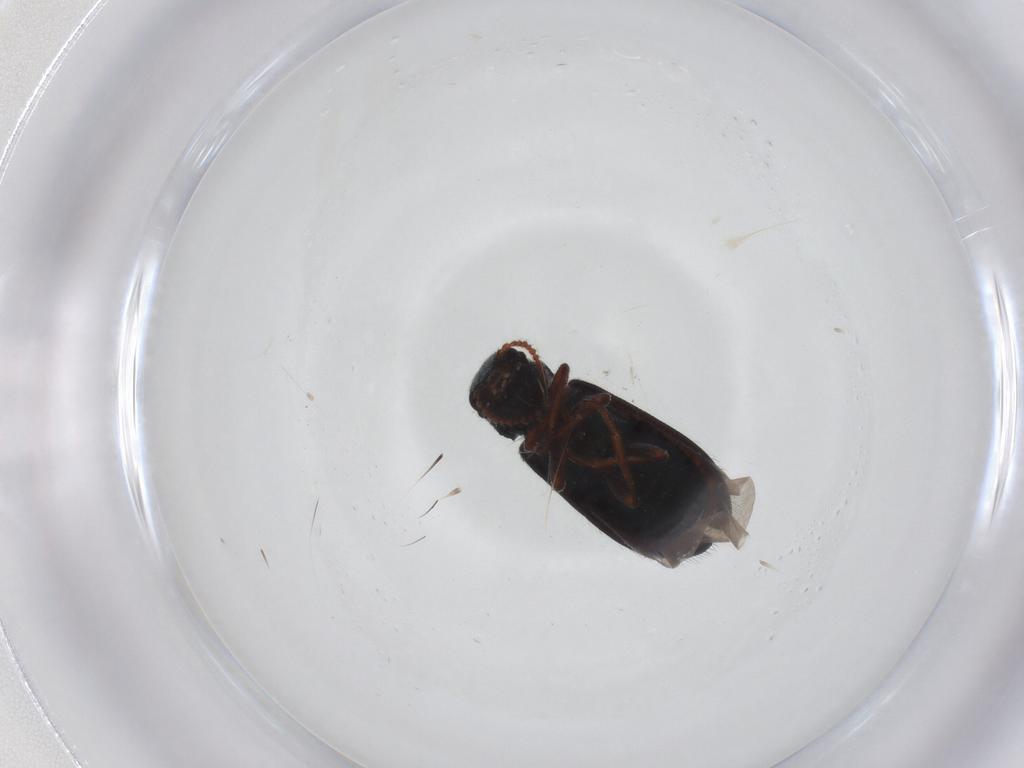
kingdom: Animalia
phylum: Arthropoda
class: Insecta
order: Coleoptera
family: Melyridae
